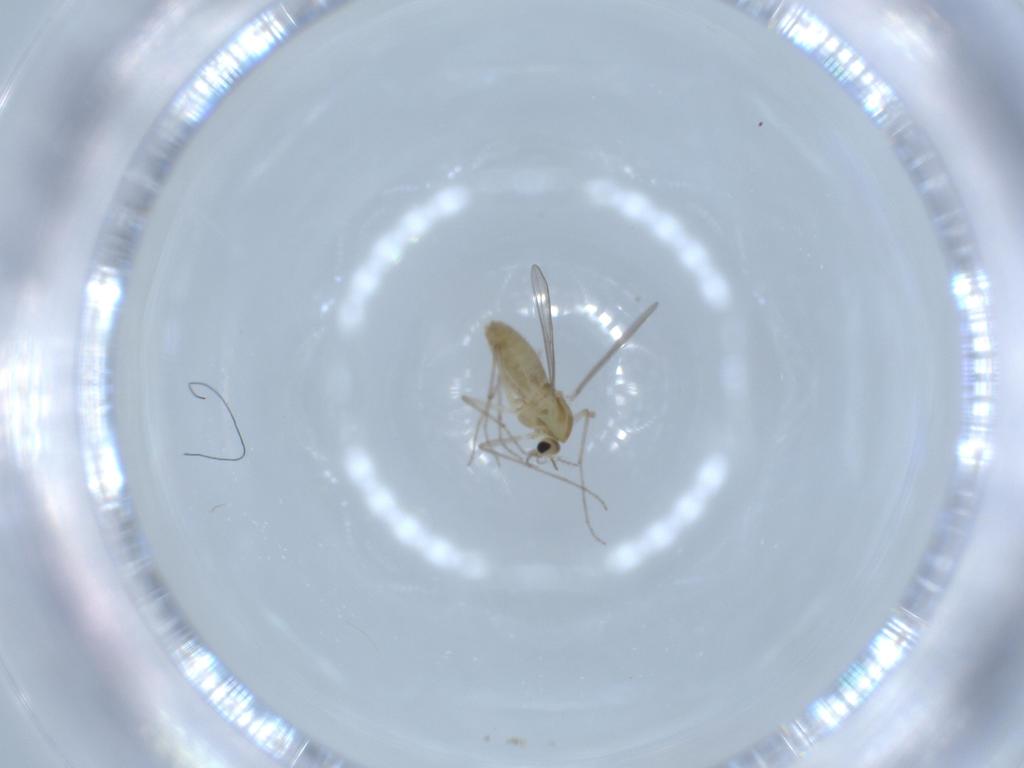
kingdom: Animalia
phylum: Arthropoda
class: Insecta
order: Diptera
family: Chironomidae
